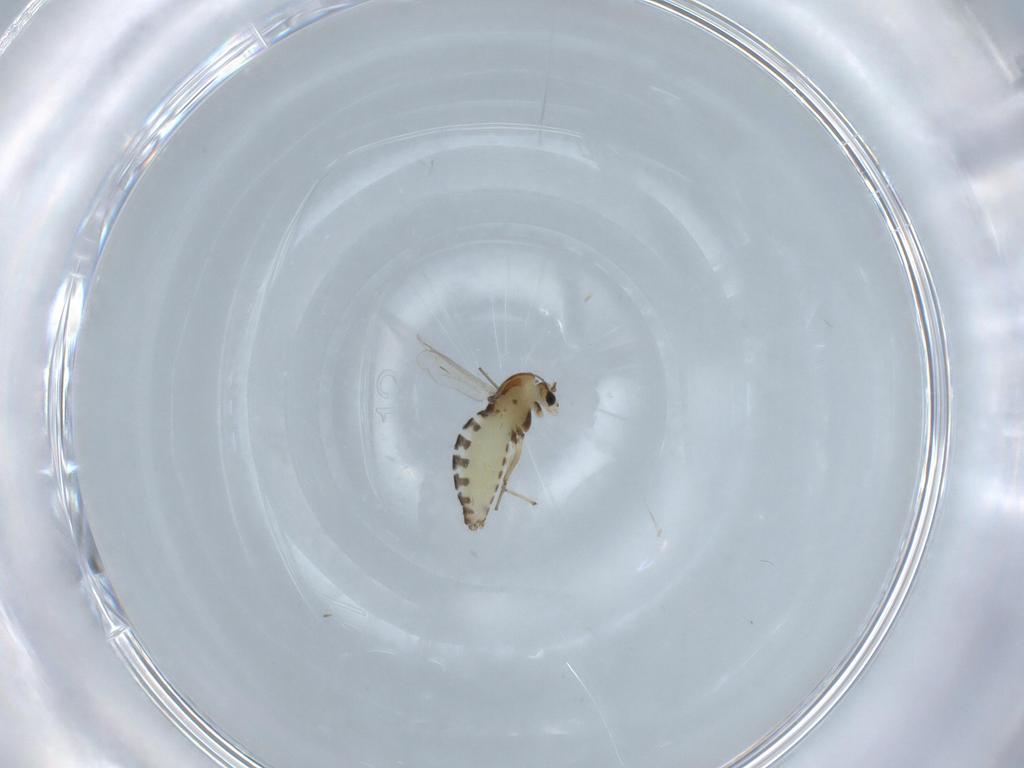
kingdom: Animalia
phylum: Arthropoda
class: Insecta
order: Diptera
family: Chironomidae
